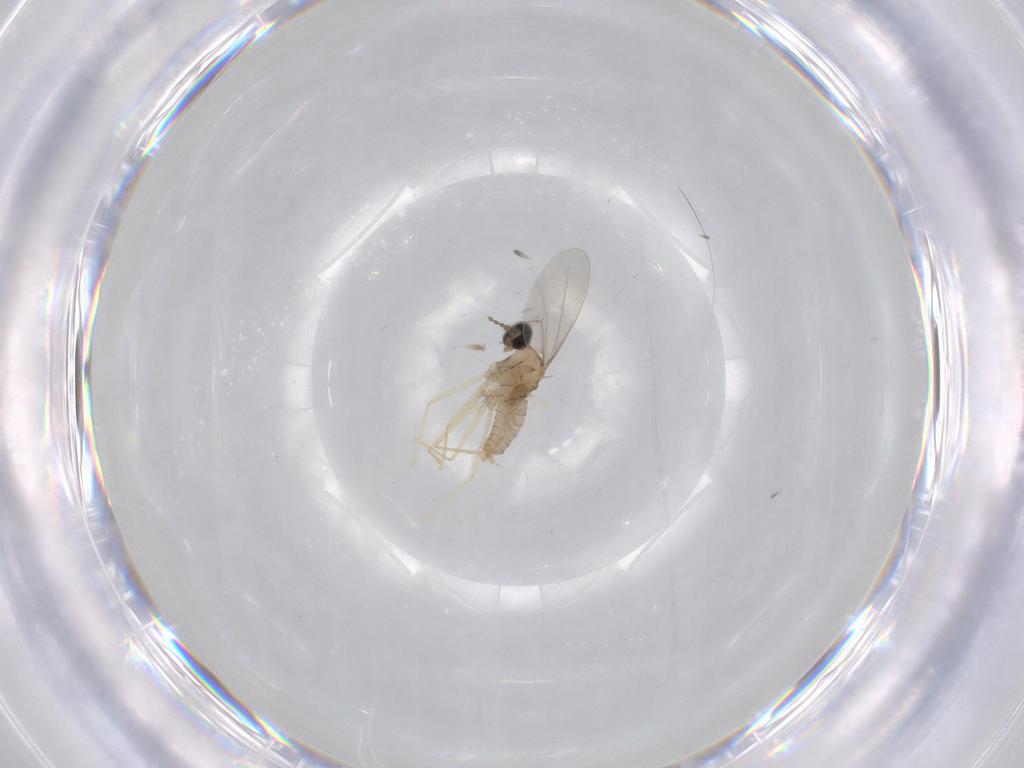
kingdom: Animalia
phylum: Arthropoda
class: Insecta
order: Diptera
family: Cecidomyiidae
